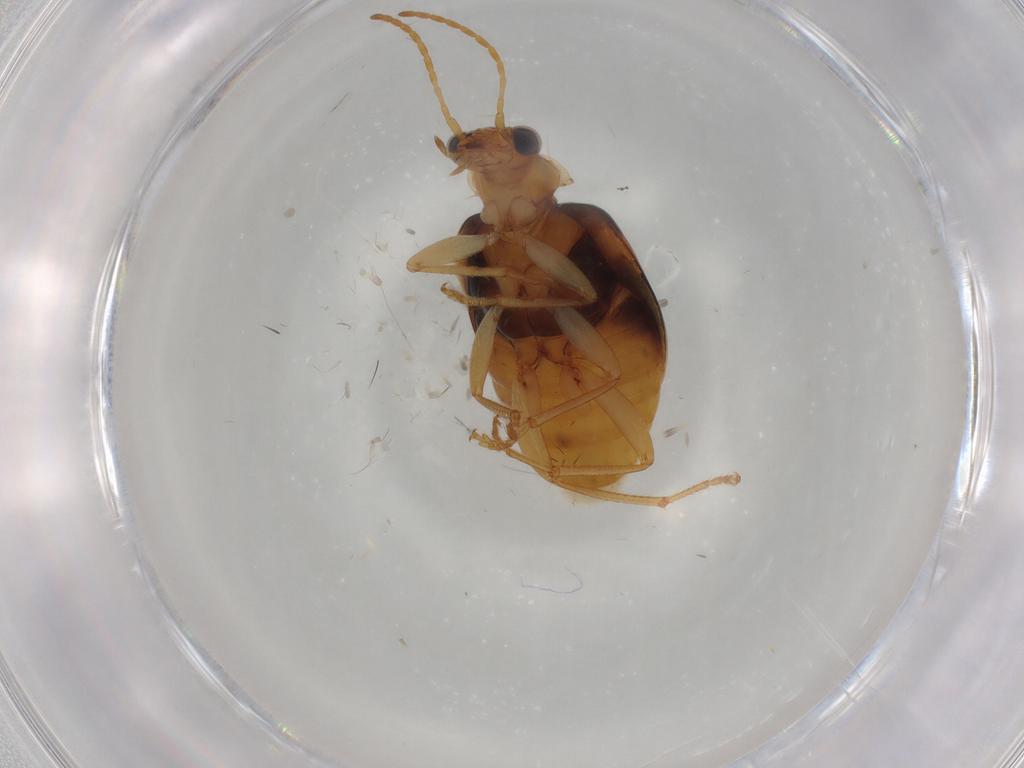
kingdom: Animalia
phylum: Arthropoda
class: Insecta
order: Coleoptera
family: Carabidae
